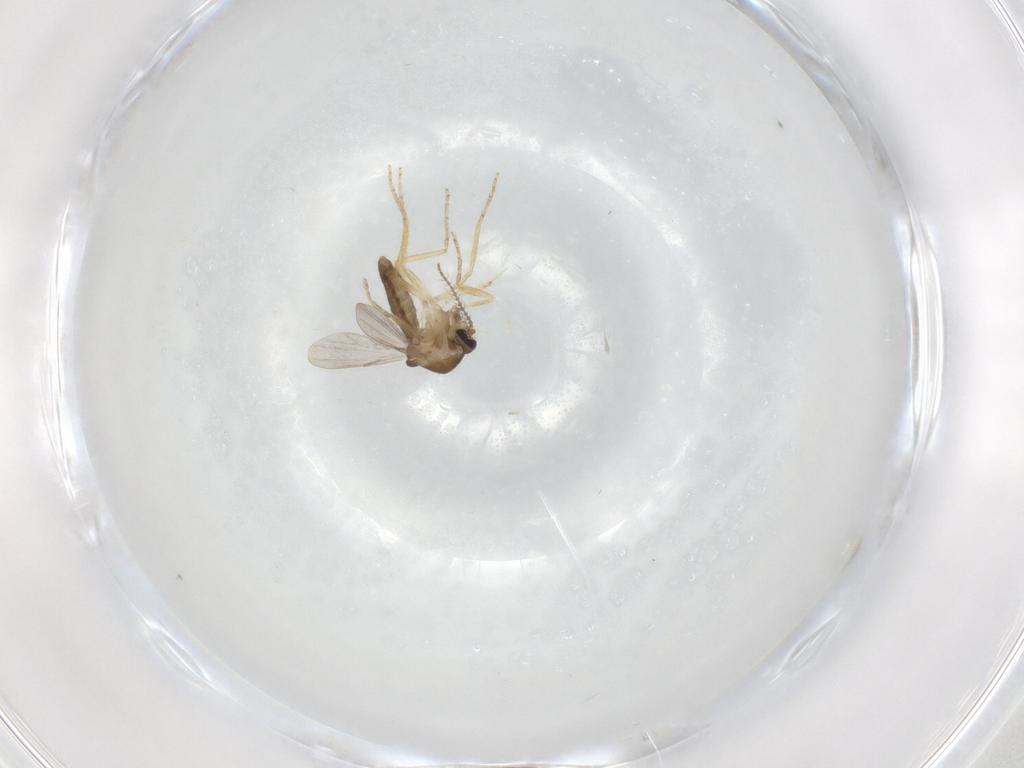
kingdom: Animalia
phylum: Arthropoda
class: Insecta
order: Diptera
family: Ceratopogonidae
